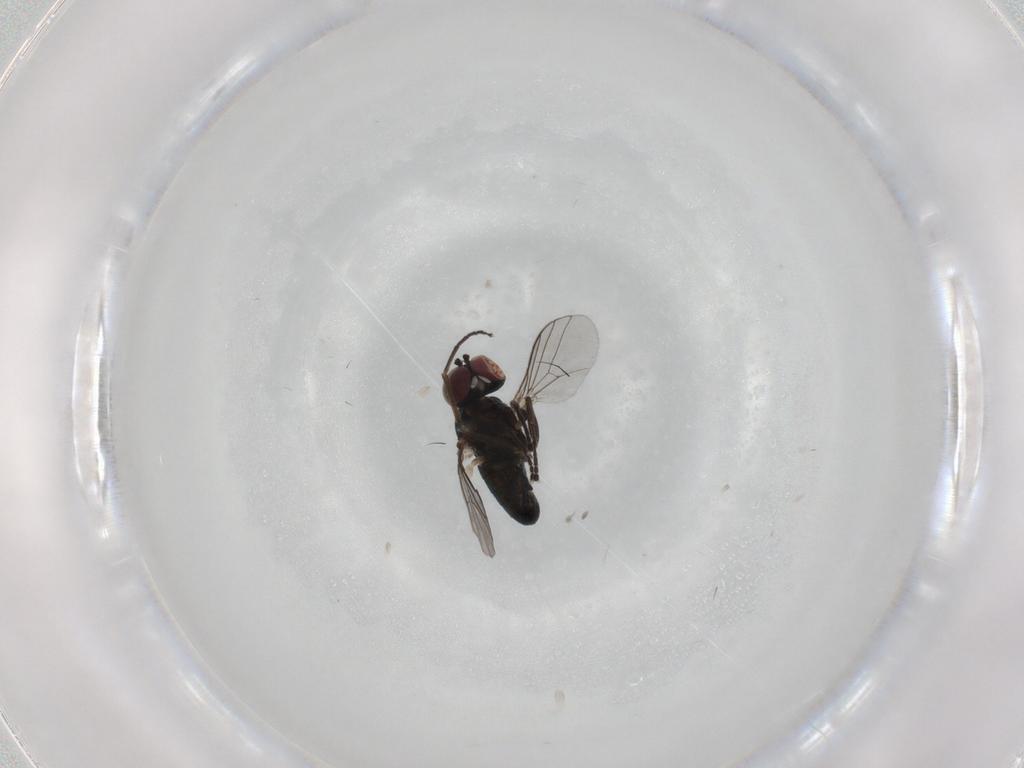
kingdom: Animalia
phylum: Arthropoda
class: Insecta
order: Diptera
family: Dolichopodidae
